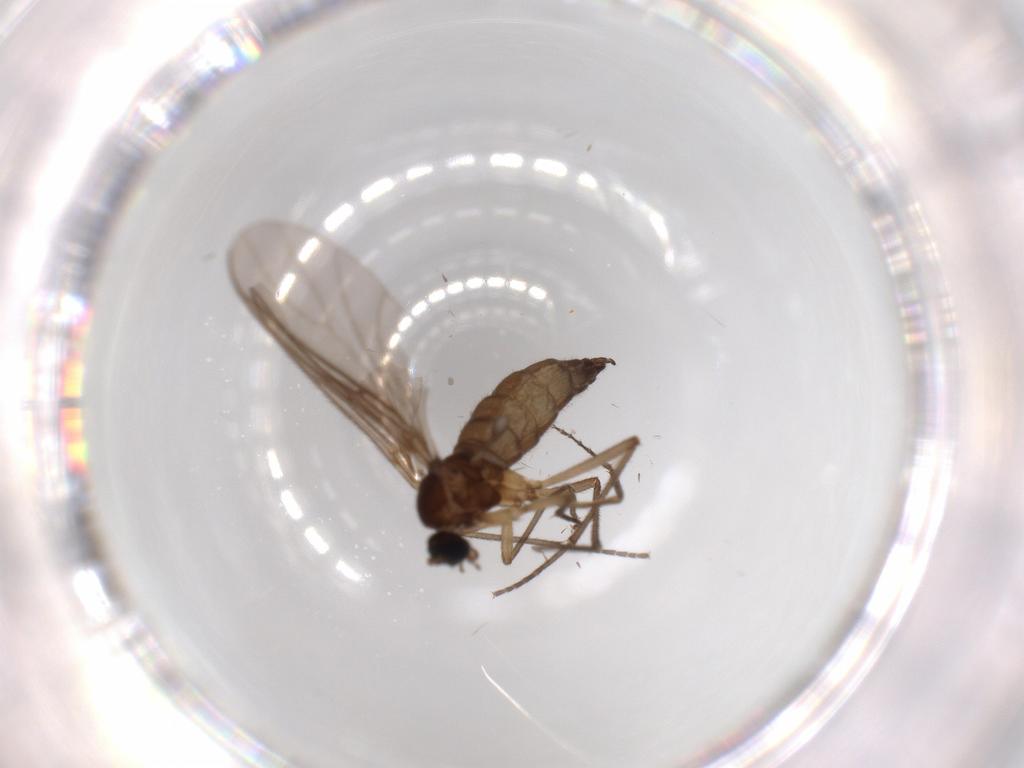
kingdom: Animalia
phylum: Arthropoda
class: Insecta
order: Diptera
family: Sciaridae
